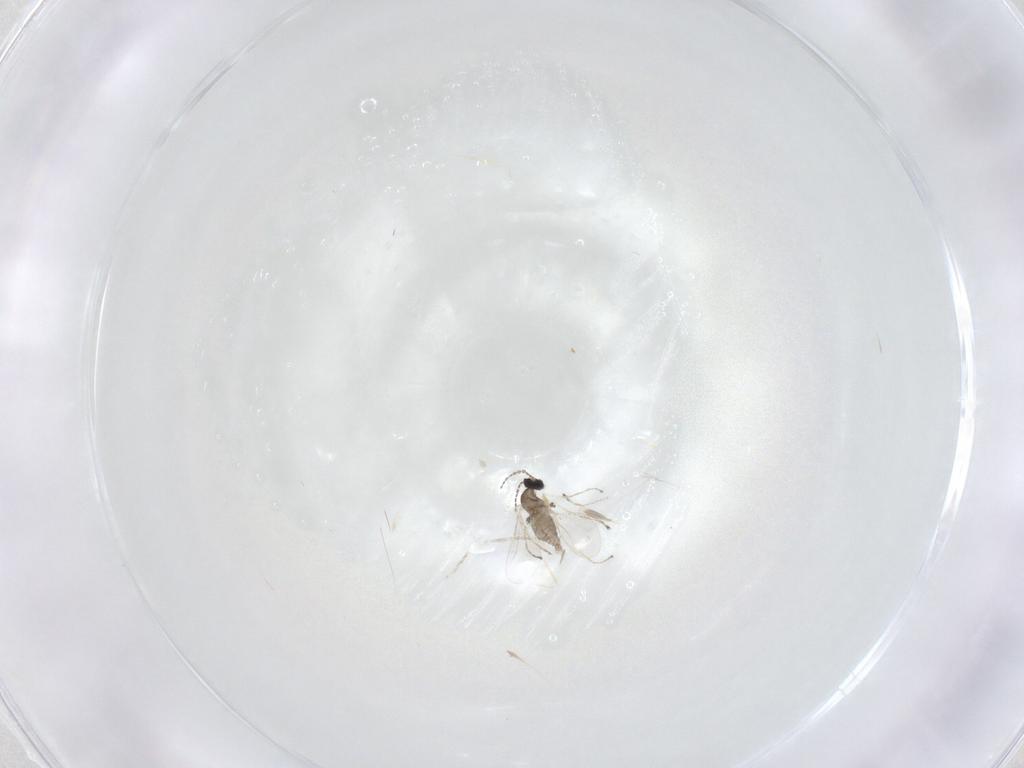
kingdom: Animalia
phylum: Arthropoda
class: Insecta
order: Diptera
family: Cecidomyiidae
